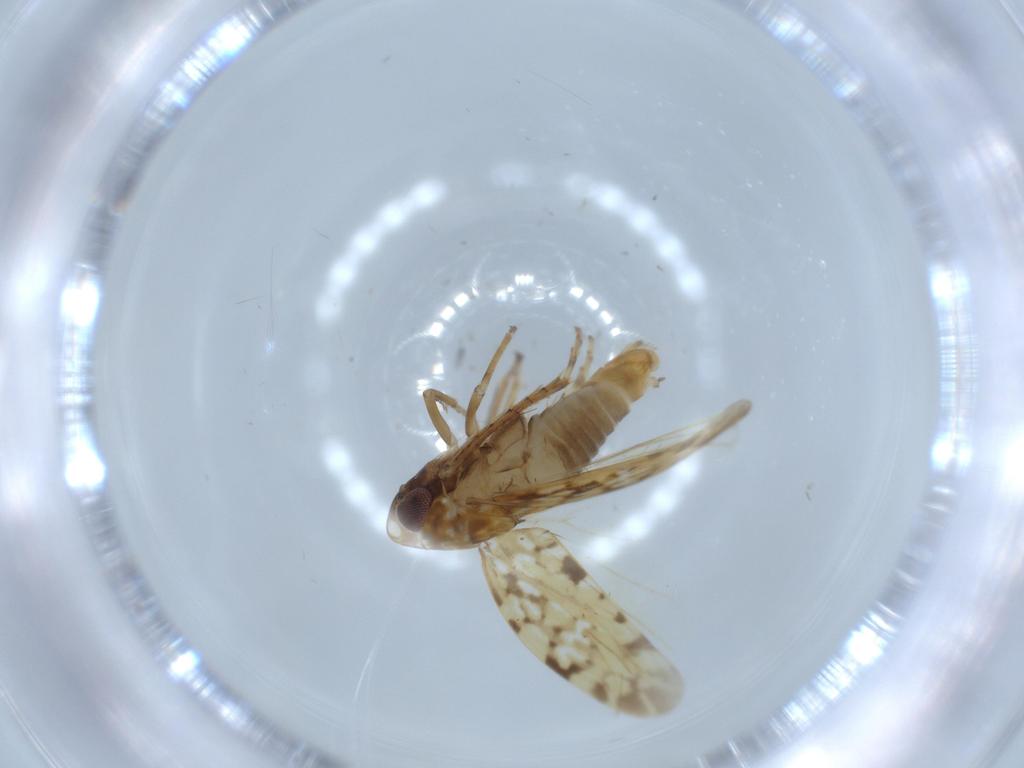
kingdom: Animalia
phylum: Arthropoda
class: Insecta
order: Hemiptera
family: Cicadellidae
